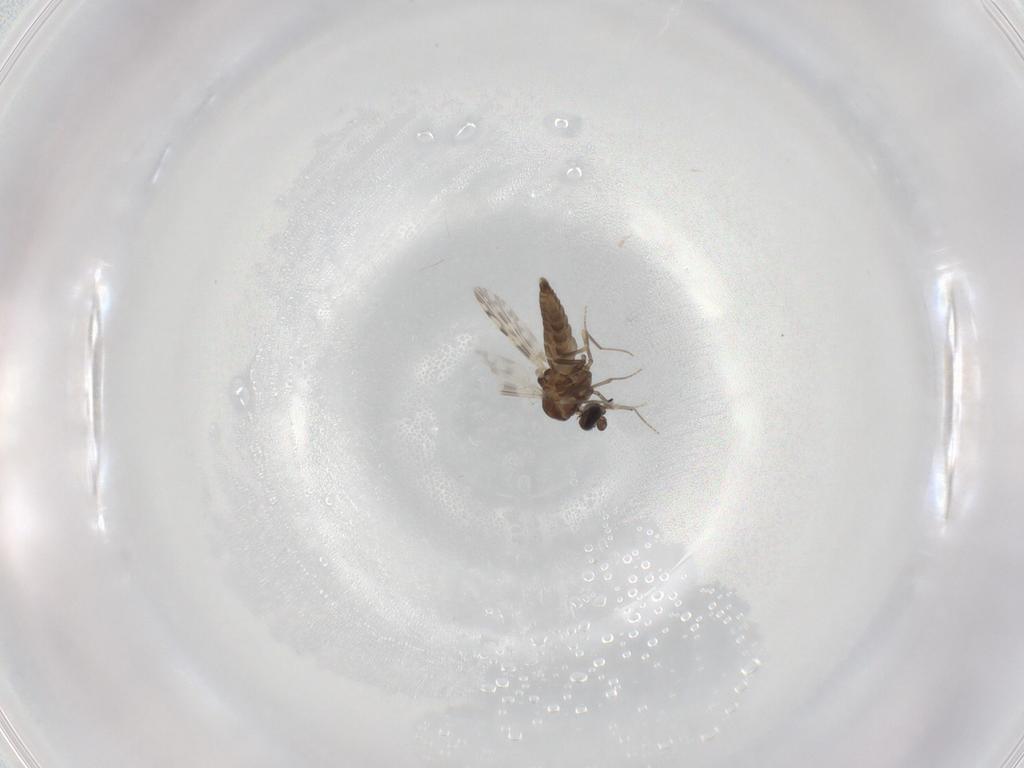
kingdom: Animalia
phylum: Arthropoda
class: Insecta
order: Diptera
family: Ceratopogonidae
